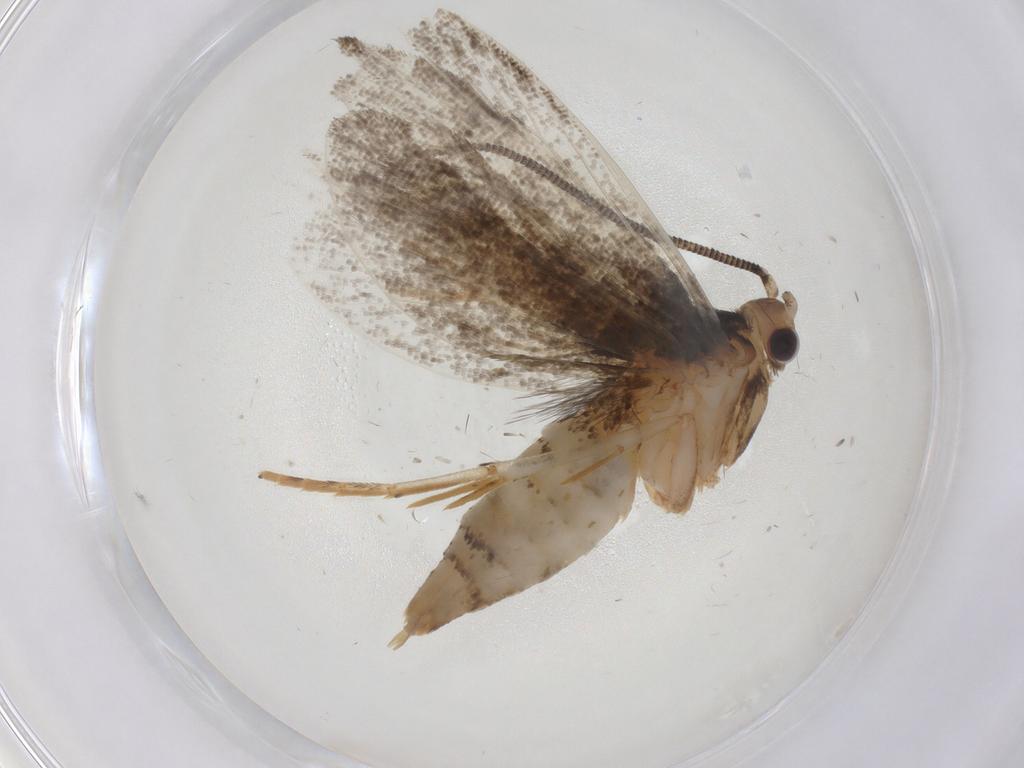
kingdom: Animalia
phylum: Arthropoda
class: Insecta
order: Lepidoptera
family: Tineidae
